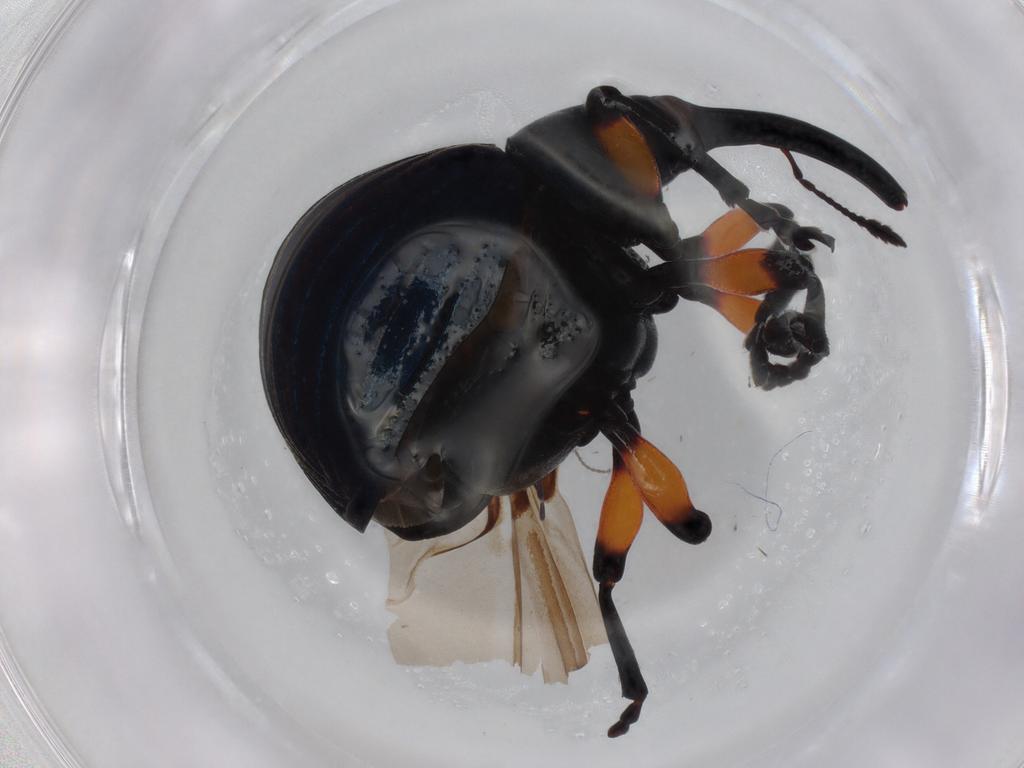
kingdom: Animalia
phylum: Arthropoda
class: Insecta
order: Coleoptera
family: Brentidae
